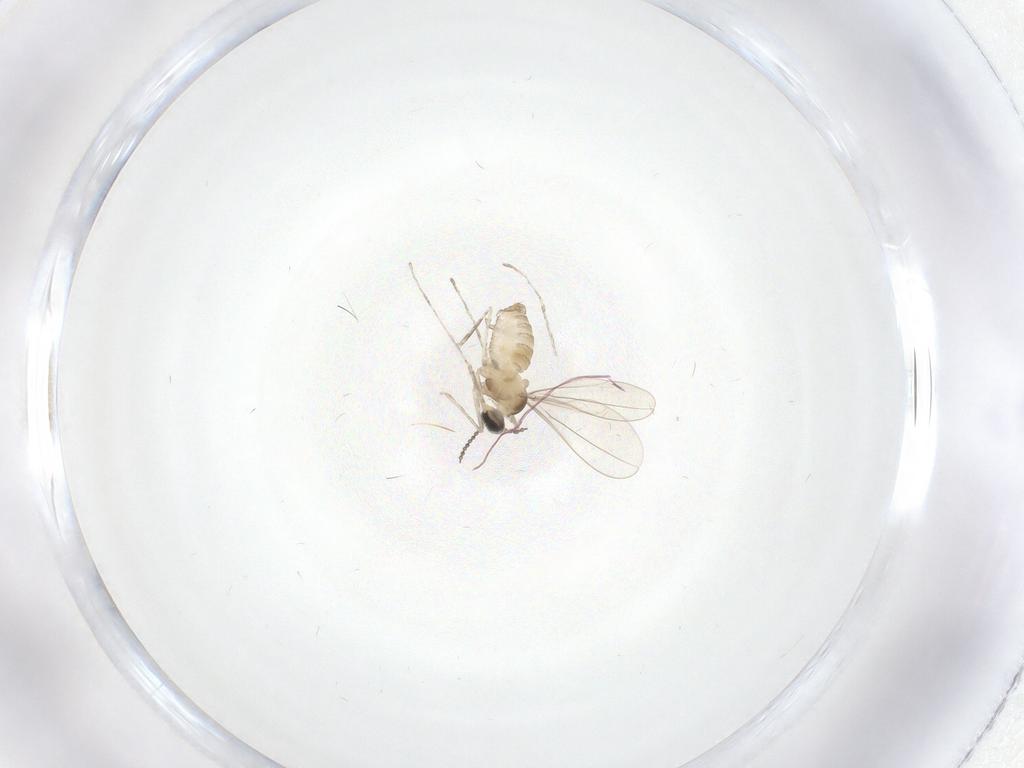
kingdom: Animalia
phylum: Arthropoda
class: Insecta
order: Diptera
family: Cecidomyiidae
